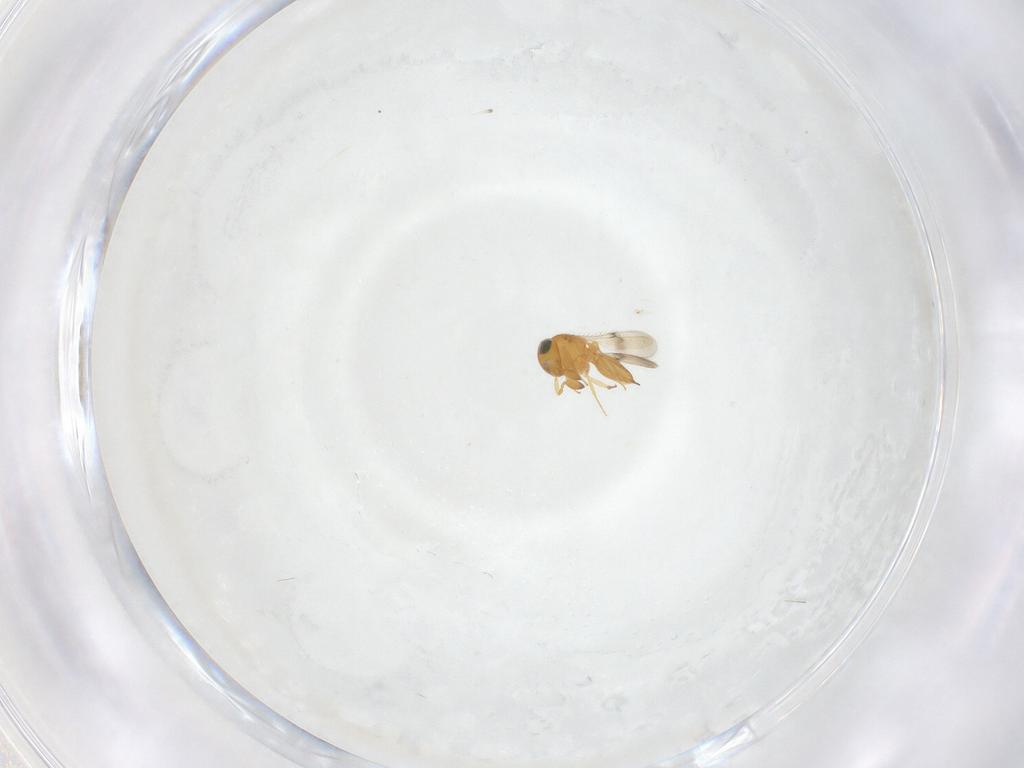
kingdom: Animalia
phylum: Arthropoda
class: Insecta
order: Hymenoptera
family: Scelionidae
